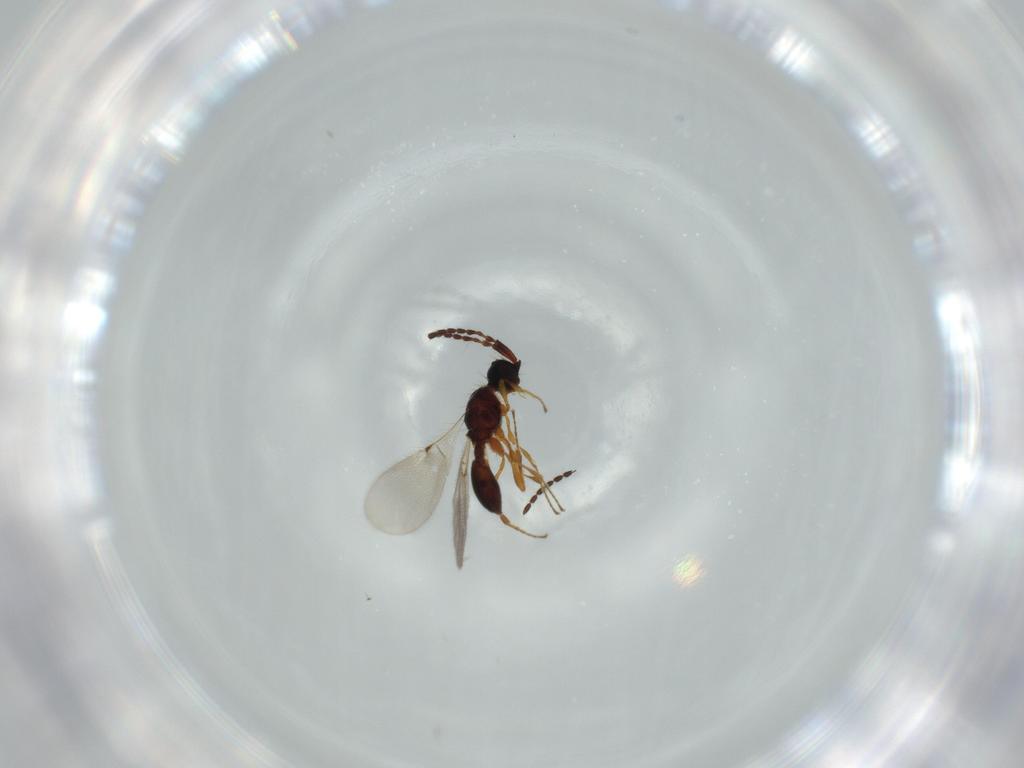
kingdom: Animalia
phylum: Arthropoda
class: Insecta
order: Hymenoptera
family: Diapriidae
